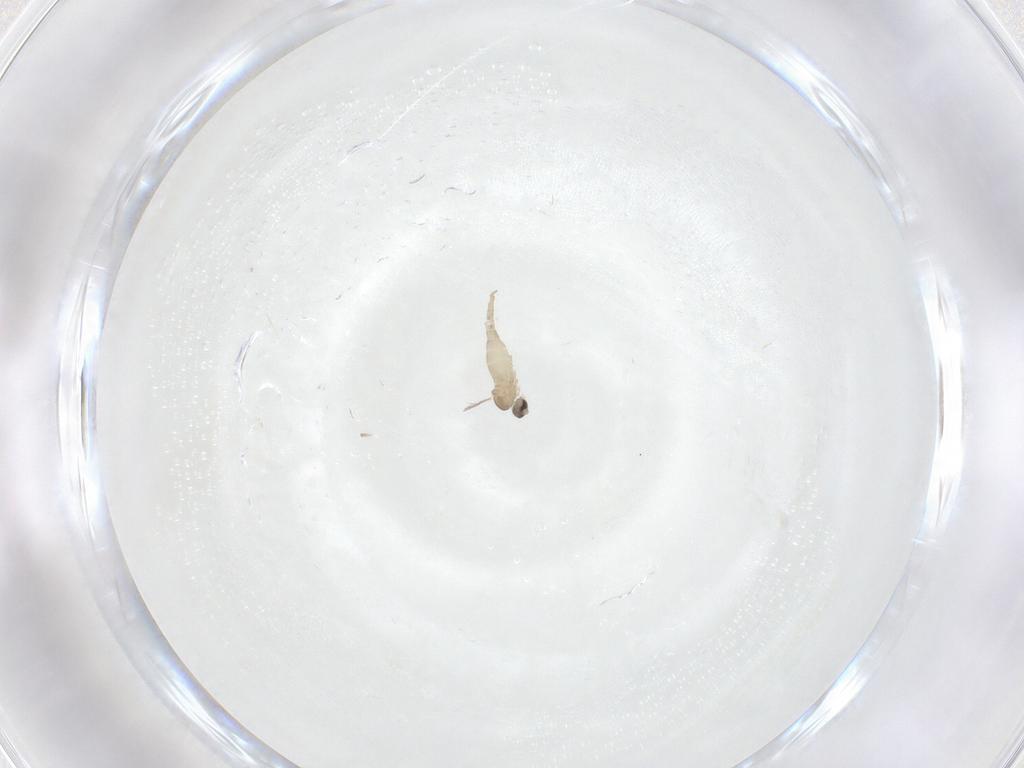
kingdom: Animalia
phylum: Arthropoda
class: Insecta
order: Diptera
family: Cecidomyiidae
